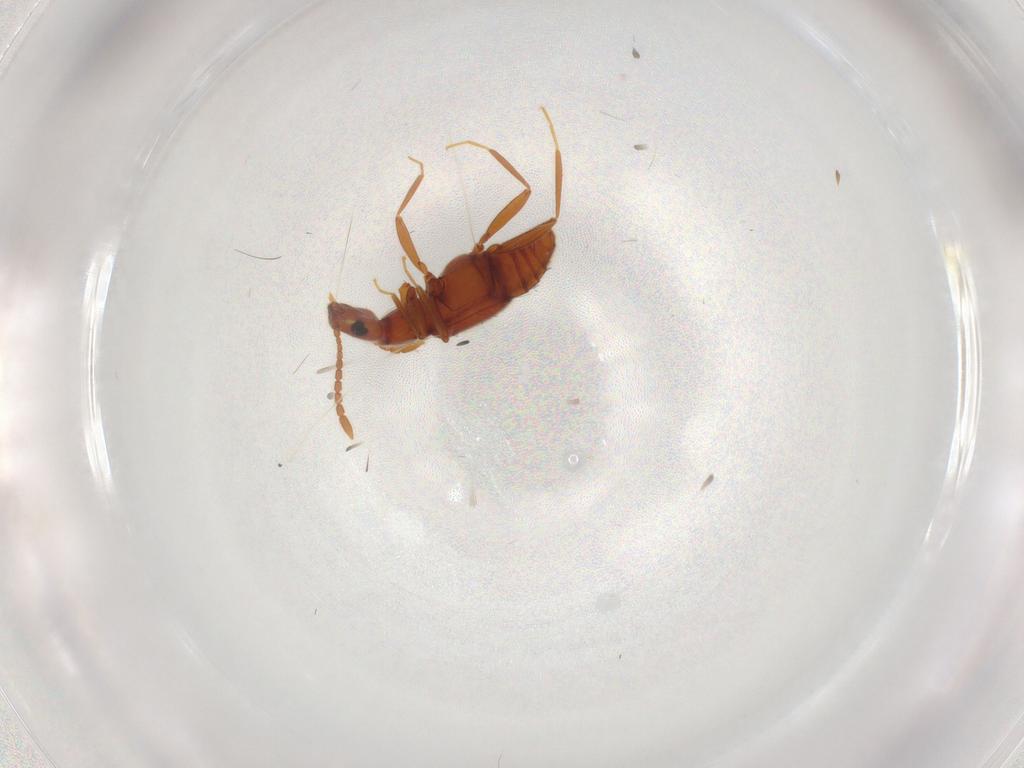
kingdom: Animalia
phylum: Arthropoda
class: Insecta
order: Coleoptera
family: Staphylinidae
